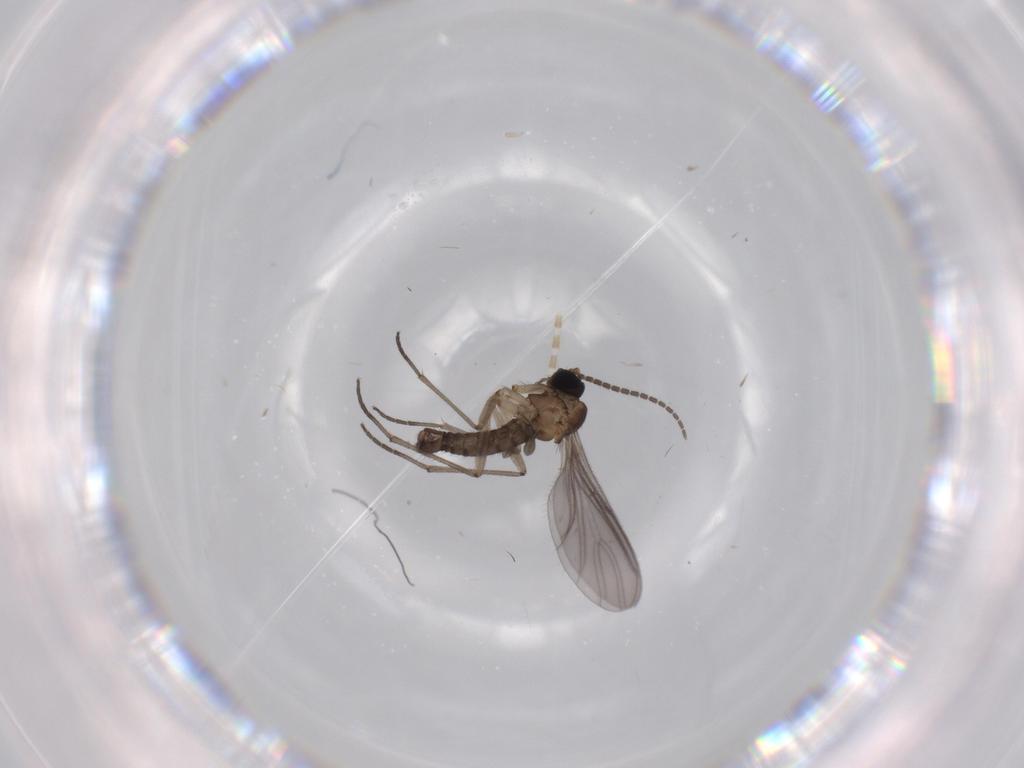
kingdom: Animalia
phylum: Arthropoda
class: Insecta
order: Diptera
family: Sciaridae
